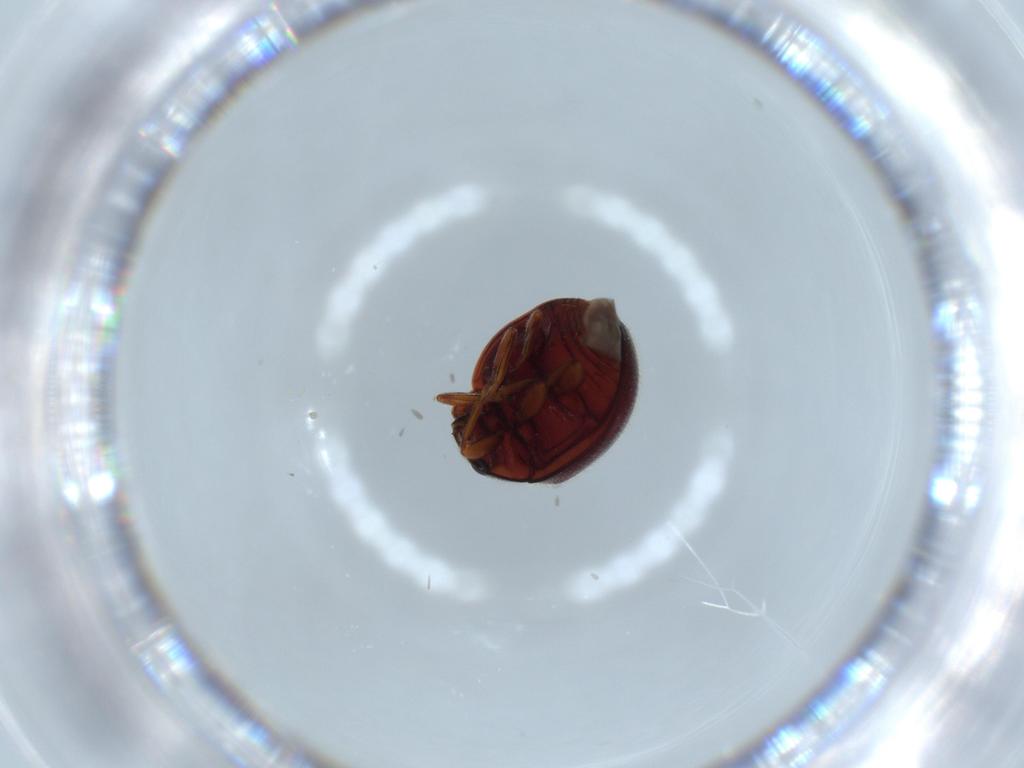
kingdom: Animalia
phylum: Arthropoda
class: Insecta
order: Coleoptera
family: Coccinellidae
